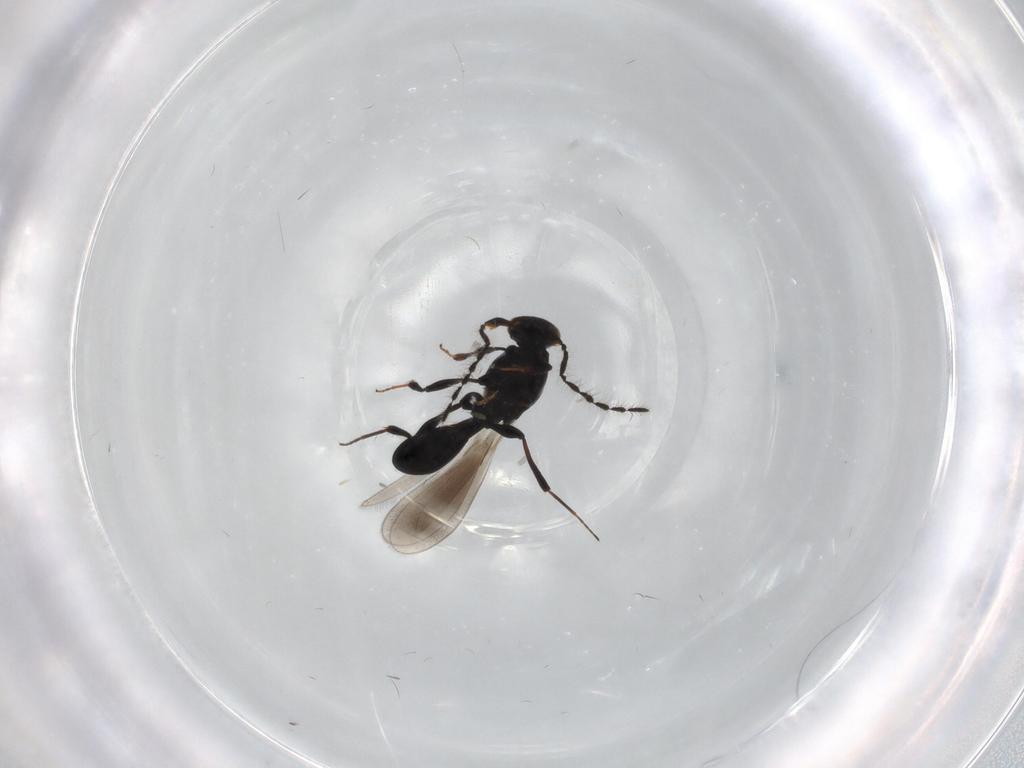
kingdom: Animalia
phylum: Arthropoda
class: Insecta
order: Hymenoptera
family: Platygastridae
